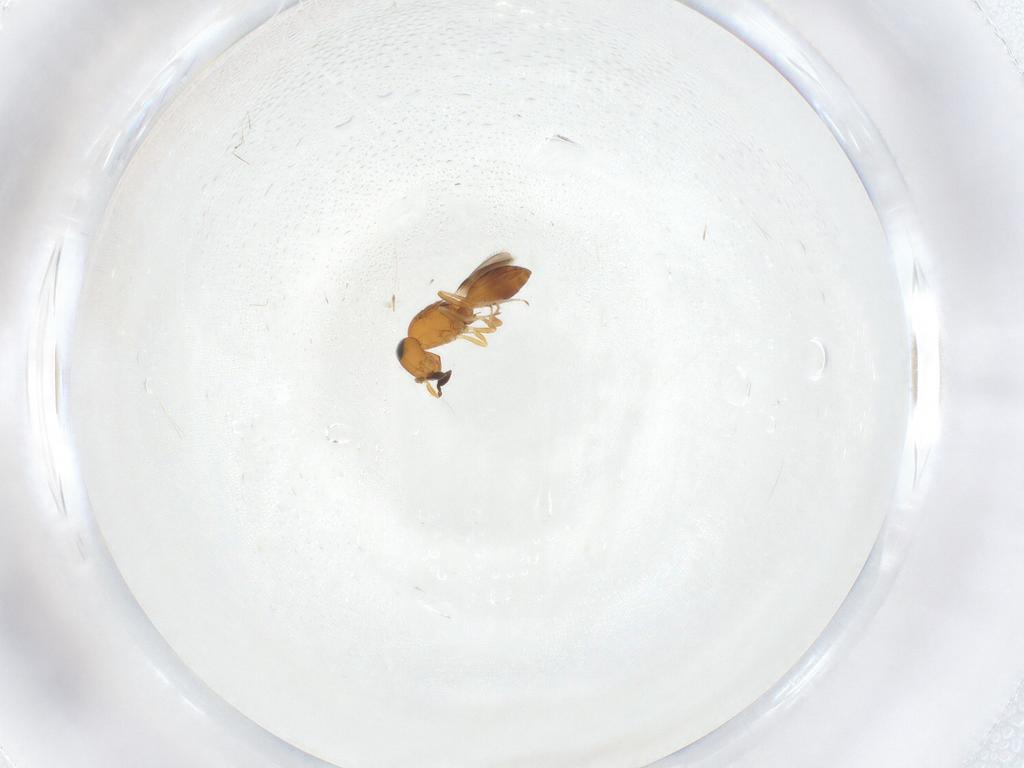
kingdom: Animalia
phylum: Arthropoda
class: Insecta
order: Hymenoptera
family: Scelionidae
